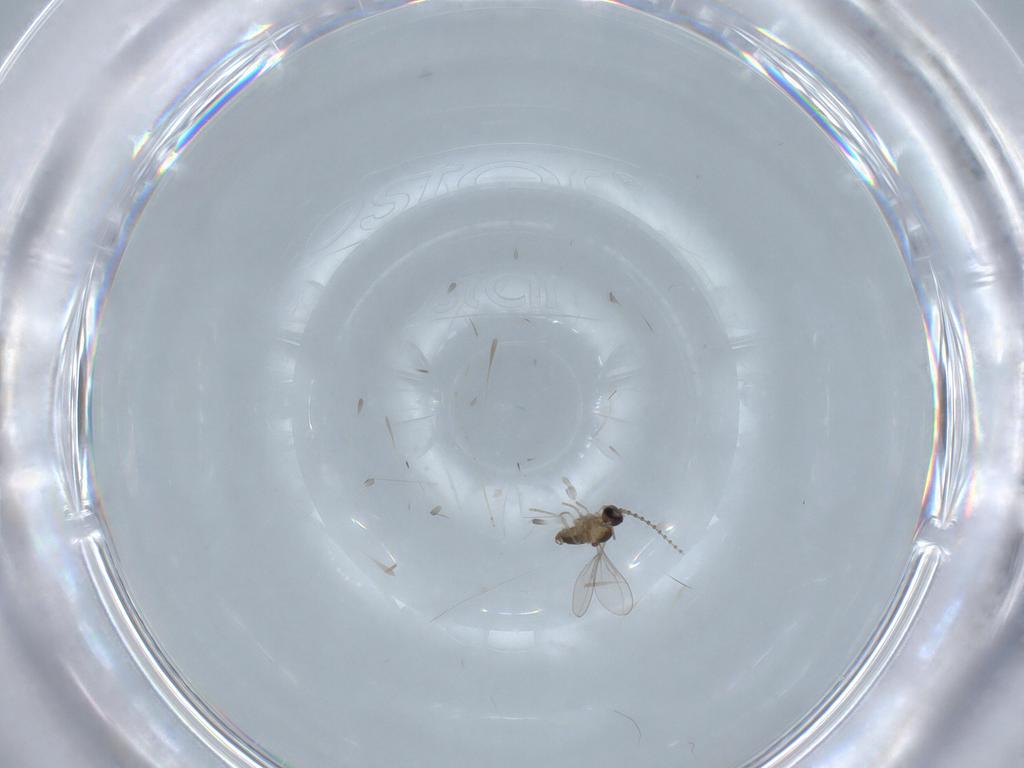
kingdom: Animalia
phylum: Arthropoda
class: Insecta
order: Diptera
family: Cecidomyiidae
